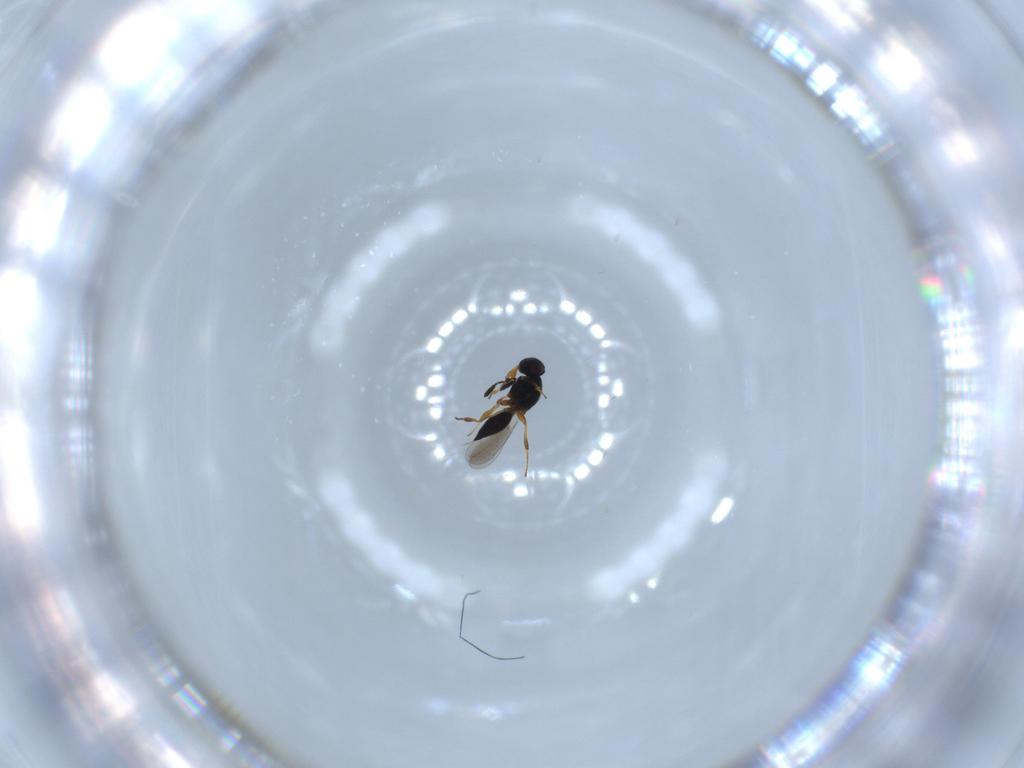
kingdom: Animalia
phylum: Arthropoda
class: Insecta
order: Hymenoptera
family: Platygastridae
